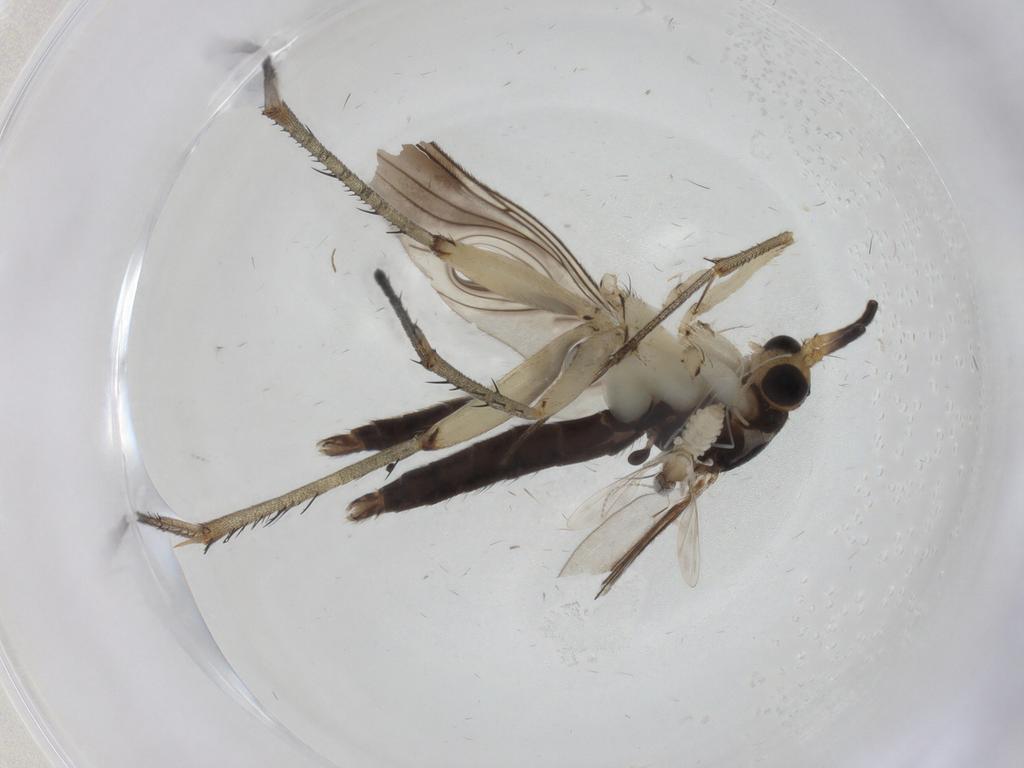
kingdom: Animalia
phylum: Arthropoda
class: Insecta
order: Diptera
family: Mycetophilidae
